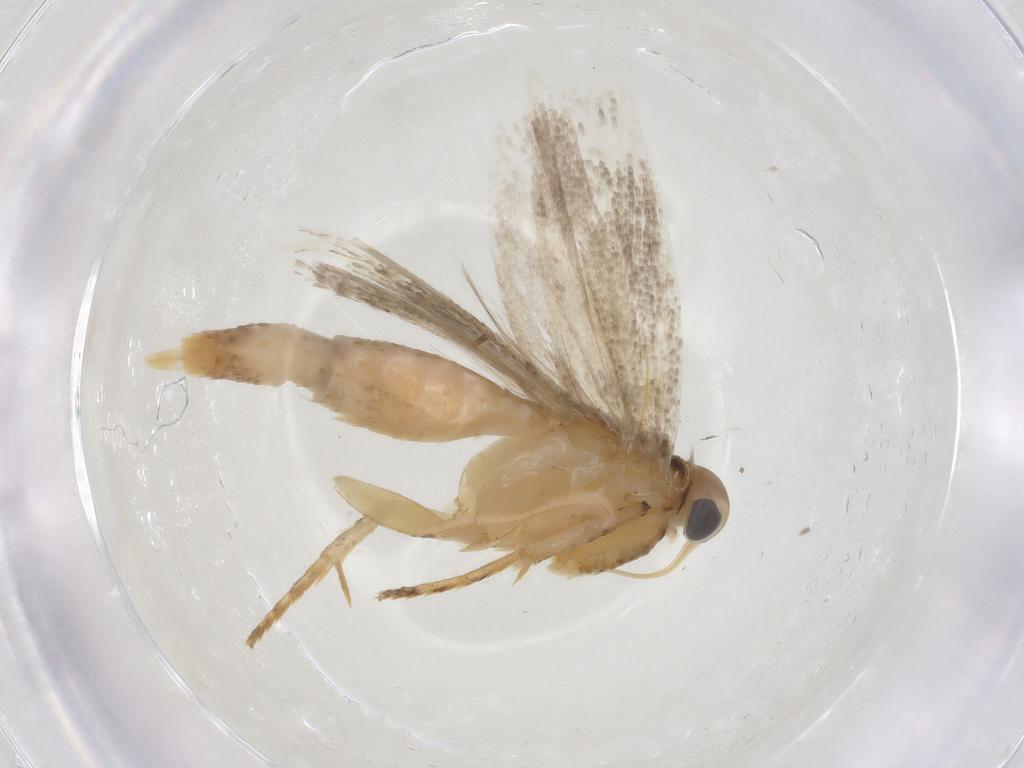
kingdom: Animalia
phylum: Arthropoda
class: Insecta
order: Lepidoptera
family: Gelechiidae
